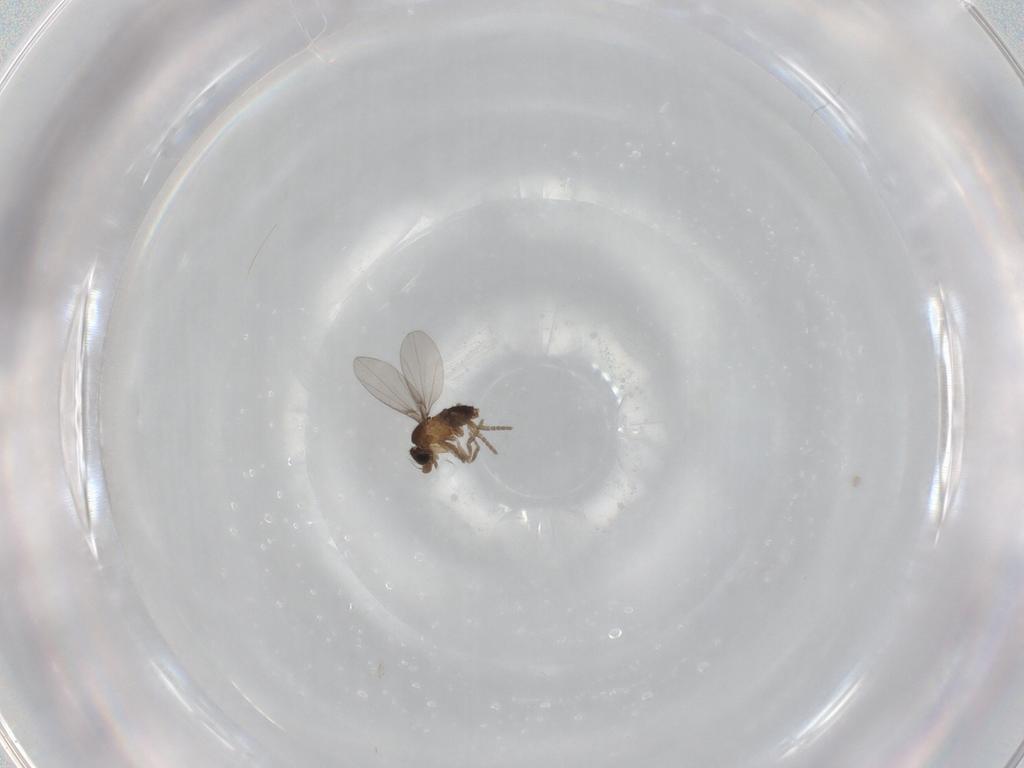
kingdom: Animalia
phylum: Arthropoda
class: Insecta
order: Diptera
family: Phoridae
